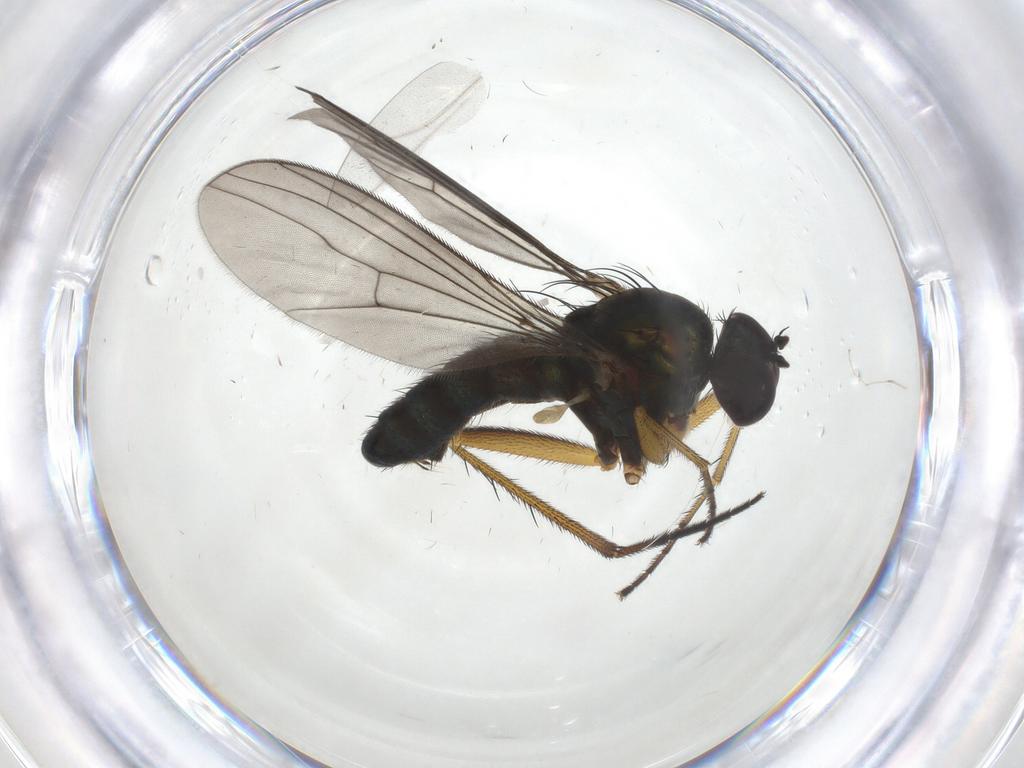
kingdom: Animalia
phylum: Arthropoda
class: Insecta
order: Diptera
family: Dolichopodidae
